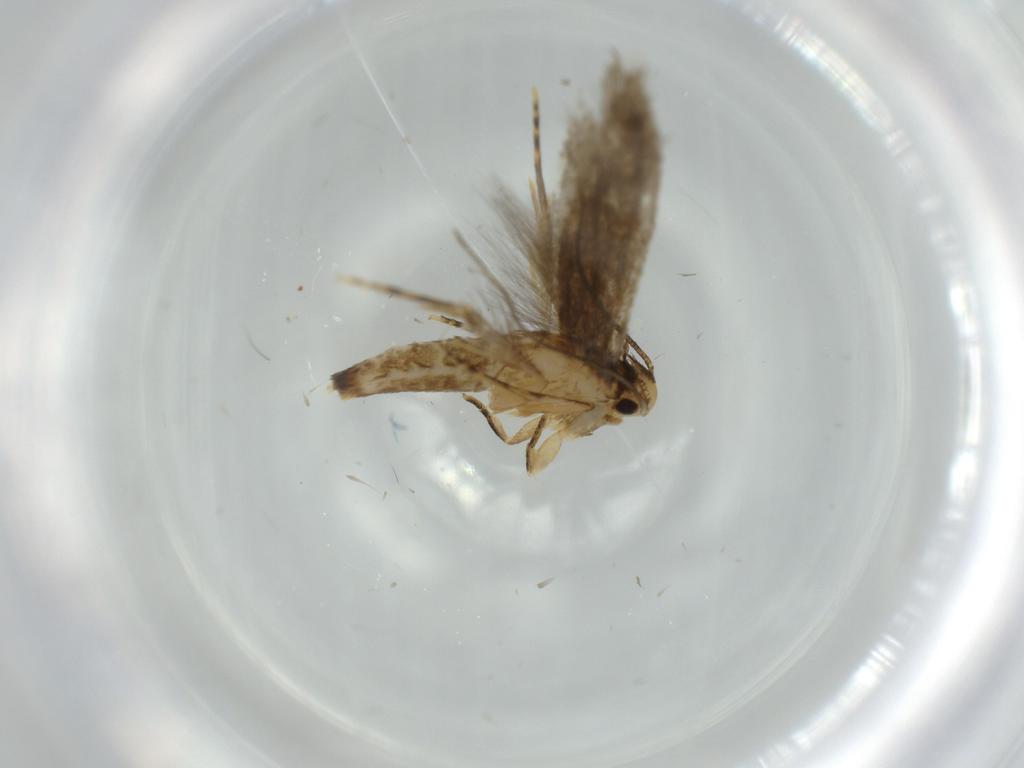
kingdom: Animalia
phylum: Arthropoda
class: Insecta
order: Lepidoptera
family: Tineidae
